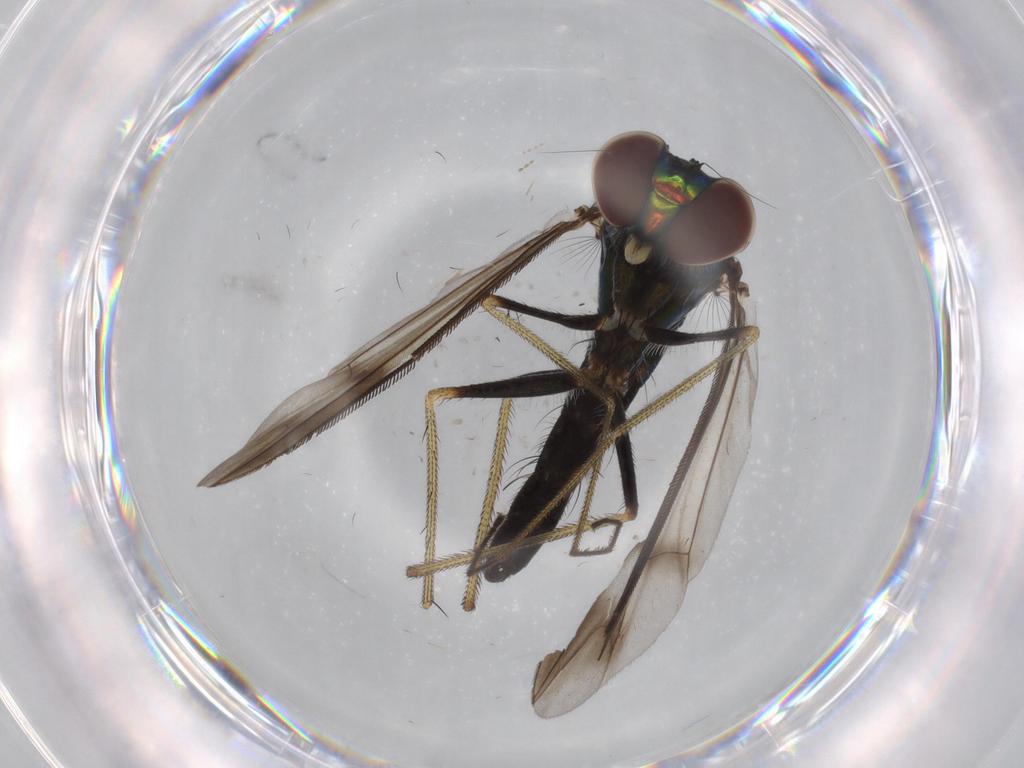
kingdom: Animalia
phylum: Arthropoda
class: Insecta
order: Diptera
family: Dolichopodidae
